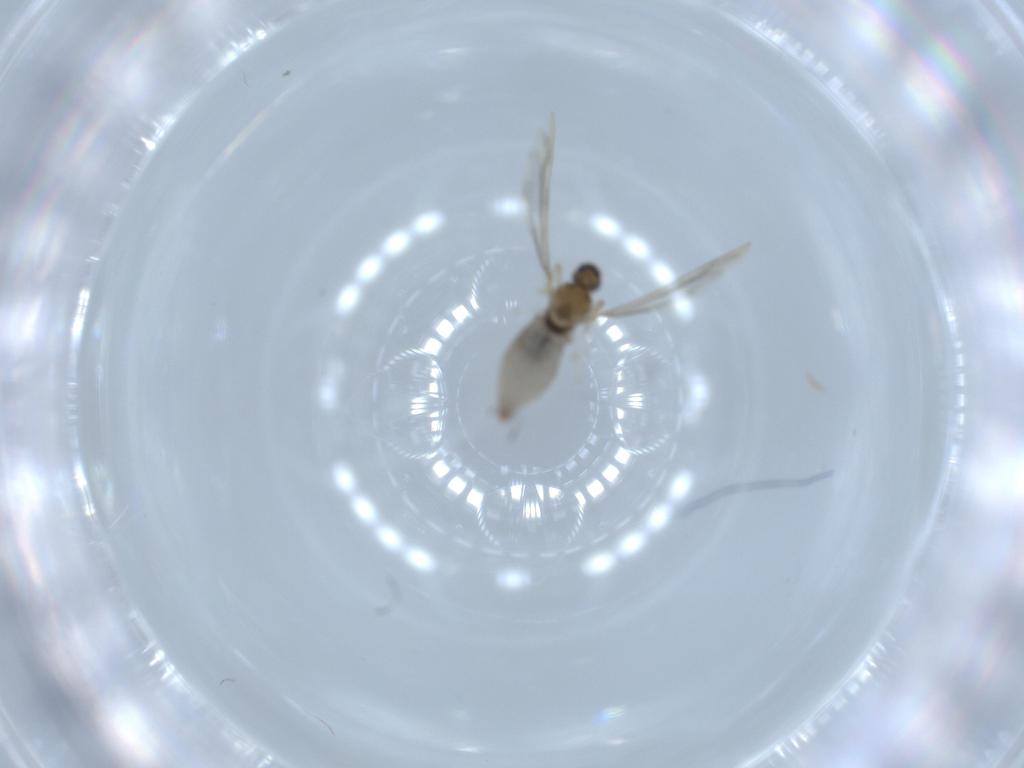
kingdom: Animalia
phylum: Arthropoda
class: Insecta
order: Diptera
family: Cecidomyiidae
